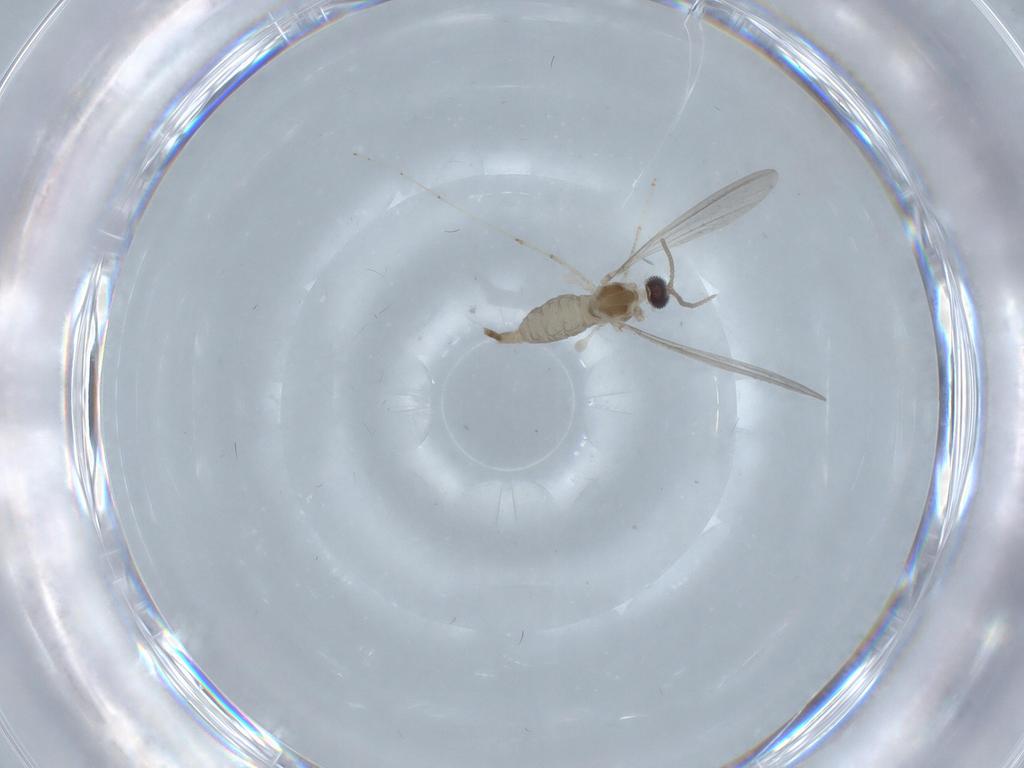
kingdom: Animalia
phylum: Arthropoda
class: Insecta
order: Diptera
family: Cecidomyiidae
